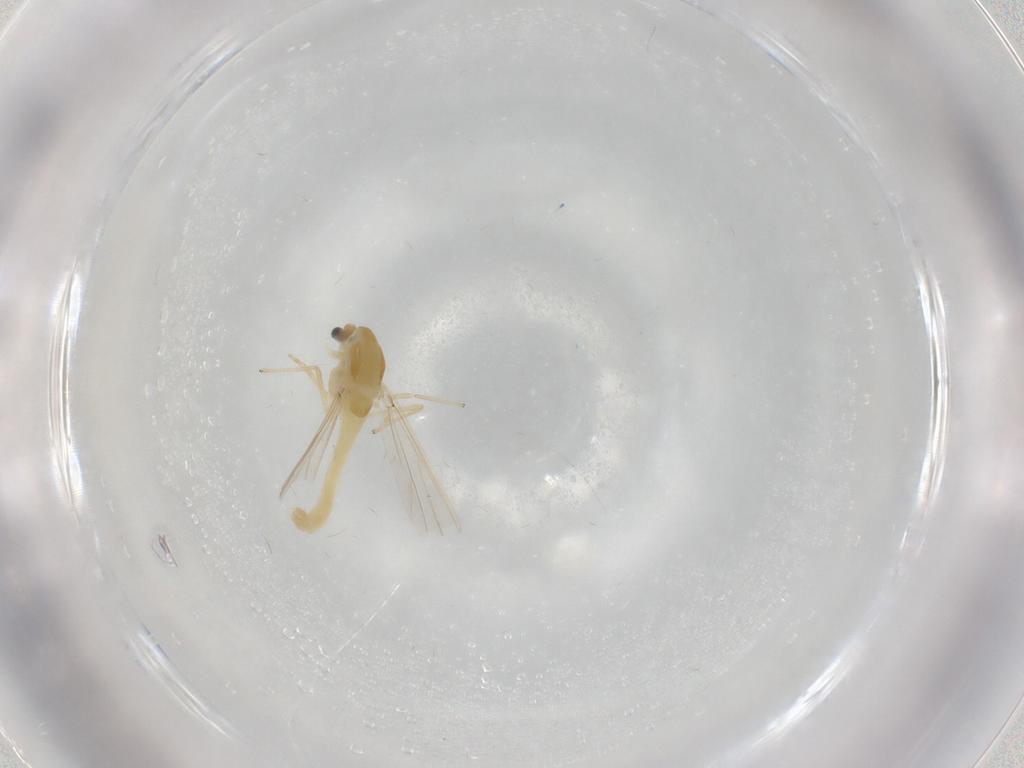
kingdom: Animalia
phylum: Arthropoda
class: Insecta
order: Diptera
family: Chironomidae
